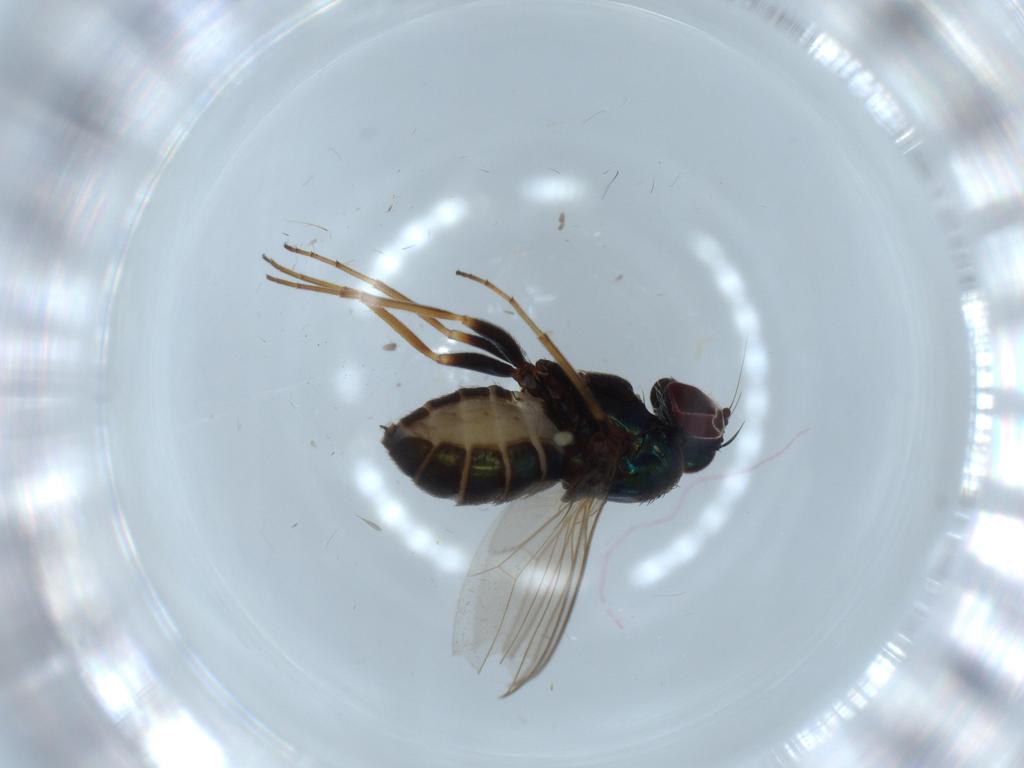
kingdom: Animalia
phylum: Arthropoda
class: Insecta
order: Diptera
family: Dolichopodidae
